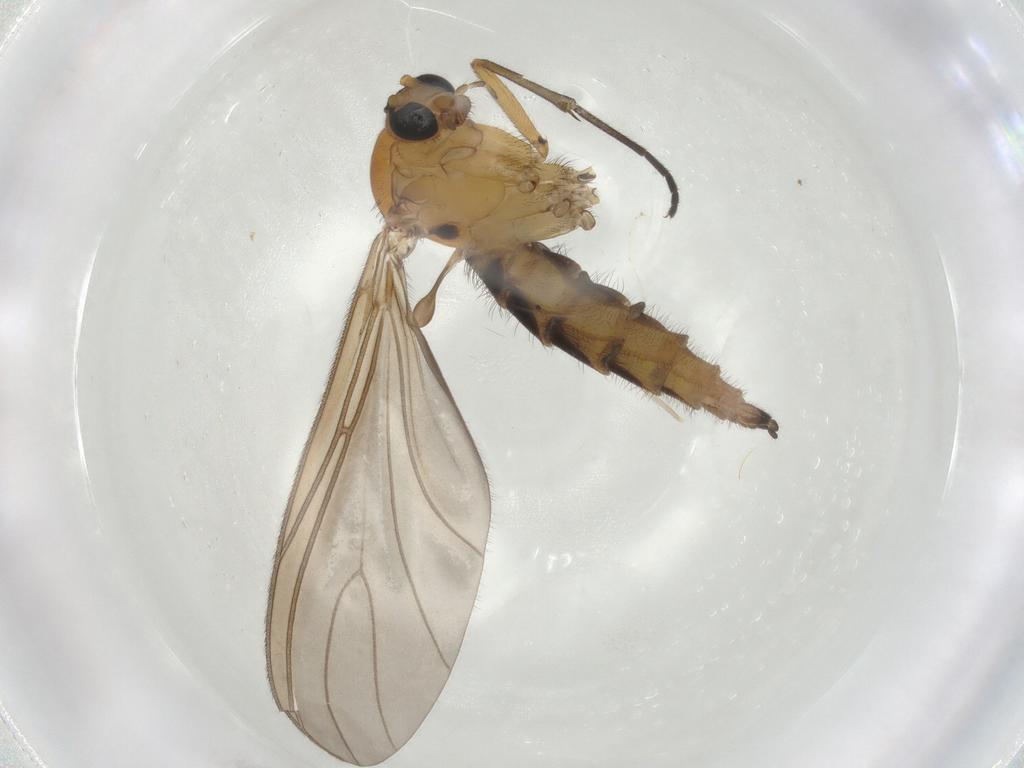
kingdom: Animalia
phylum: Arthropoda
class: Insecta
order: Diptera
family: Sciaridae
